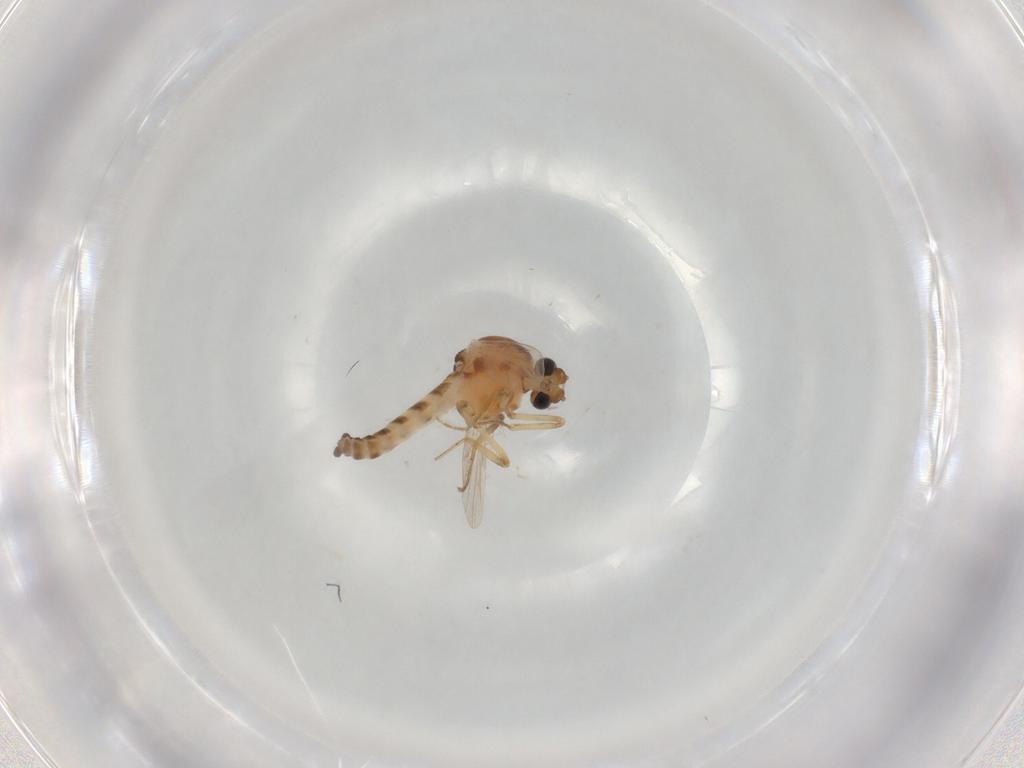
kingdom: Animalia
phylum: Arthropoda
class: Insecta
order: Diptera
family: Ceratopogonidae
